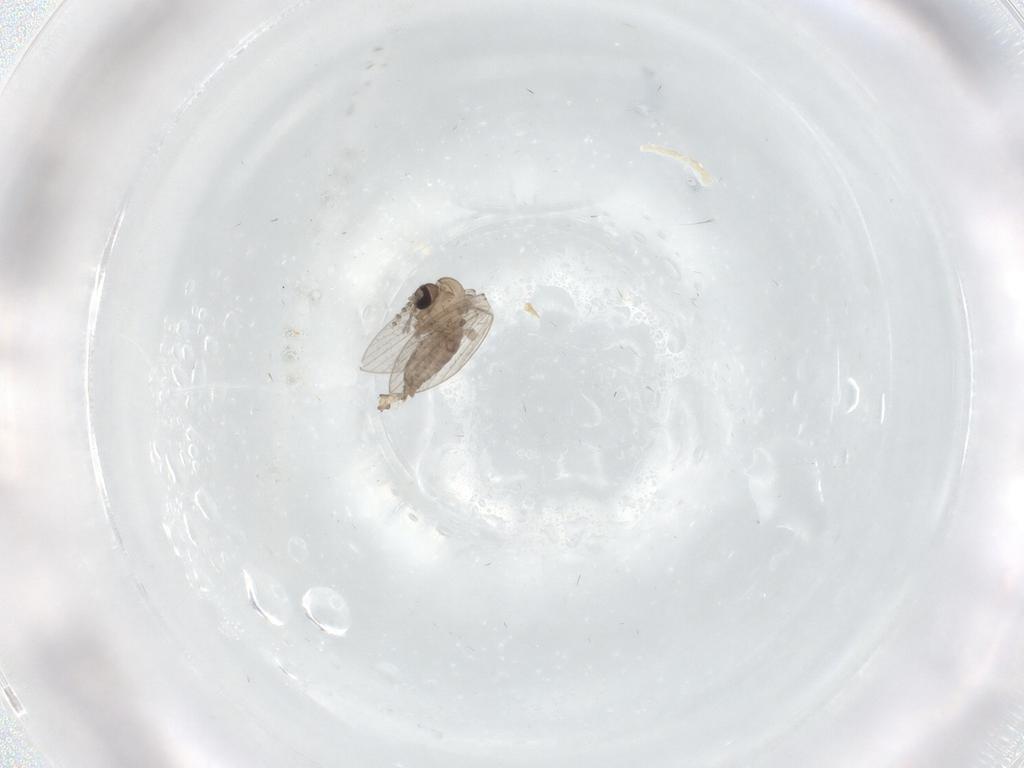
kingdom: Animalia
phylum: Arthropoda
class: Insecta
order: Diptera
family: Psychodidae
